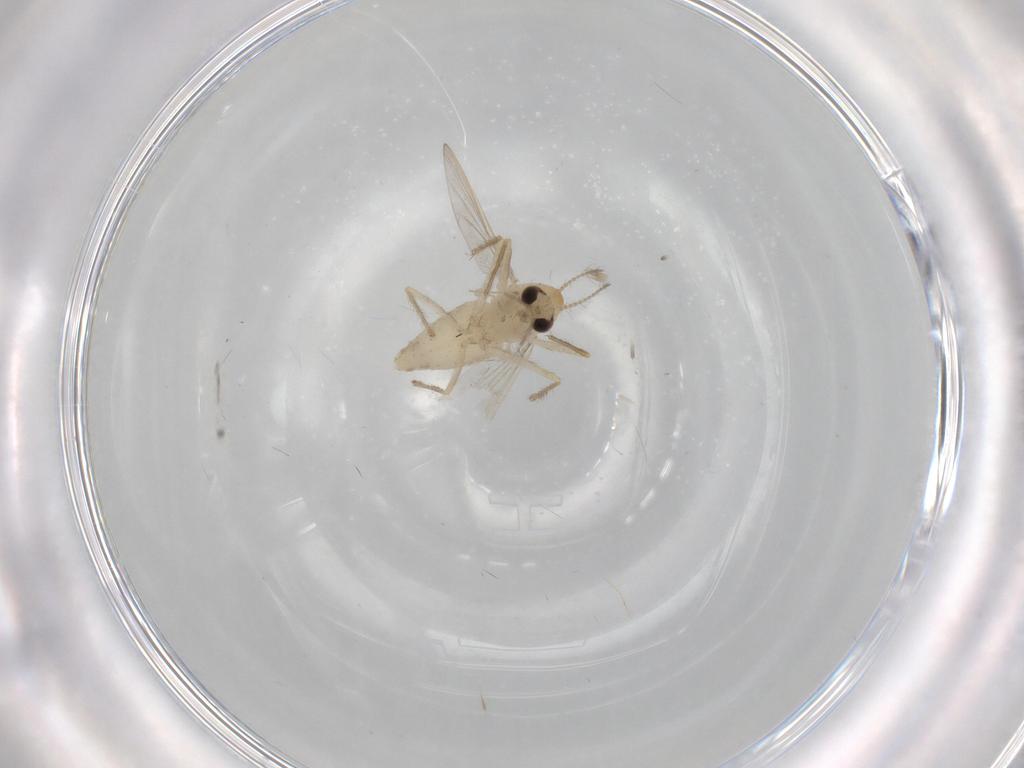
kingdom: Animalia
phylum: Arthropoda
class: Insecta
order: Diptera
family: Chironomidae
